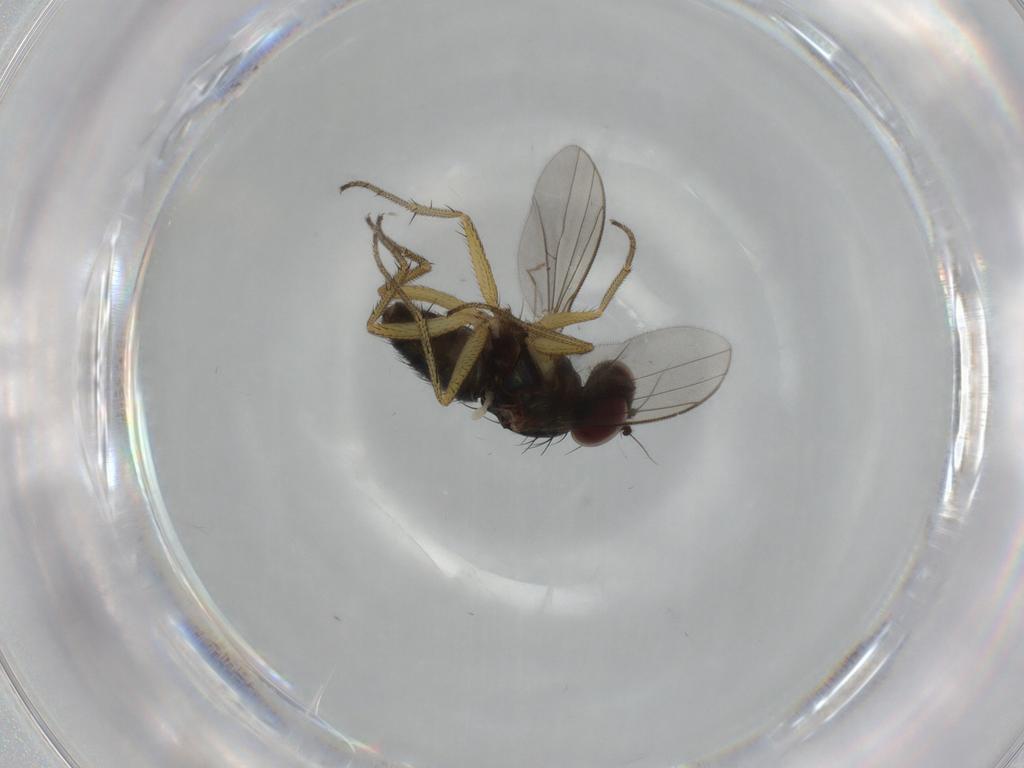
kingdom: Animalia
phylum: Arthropoda
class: Insecta
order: Diptera
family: Dolichopodidae
